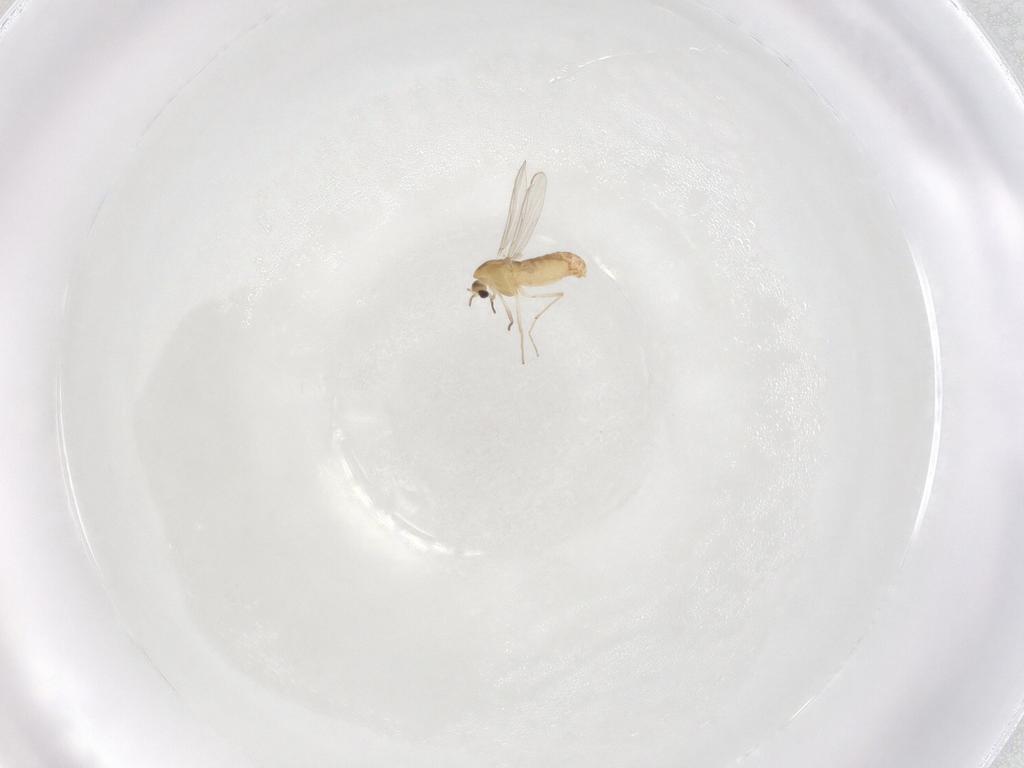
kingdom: Animalia
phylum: Arthropoda
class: Insecta
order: Diptera
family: Chironomidae
